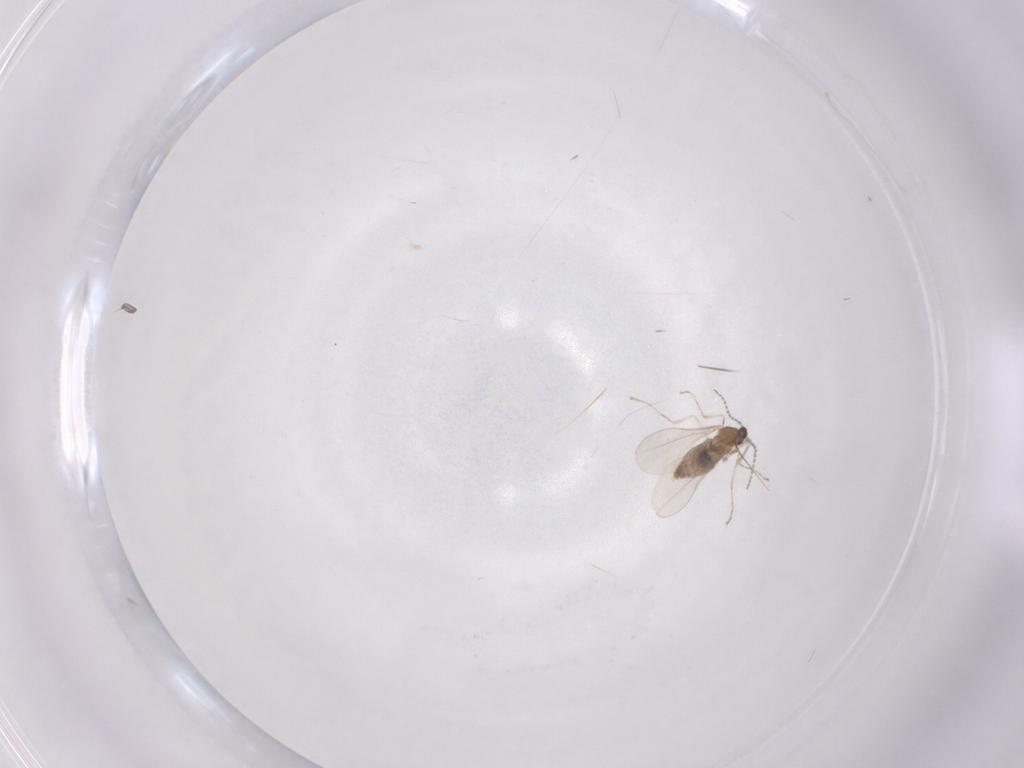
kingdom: Animalia
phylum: Arthropoda
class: Insecta
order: Diptera
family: Cecidomyiidae
